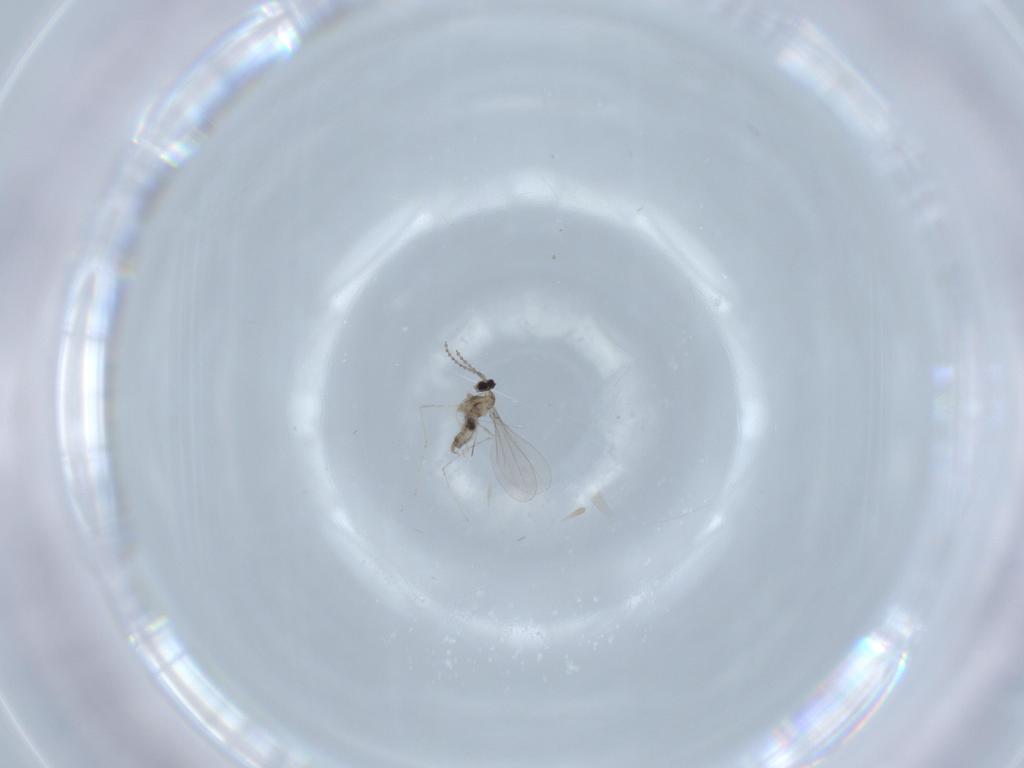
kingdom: Animalia
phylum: Arthropoda
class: Insecta
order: Diptera
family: Cecidomyiidae
